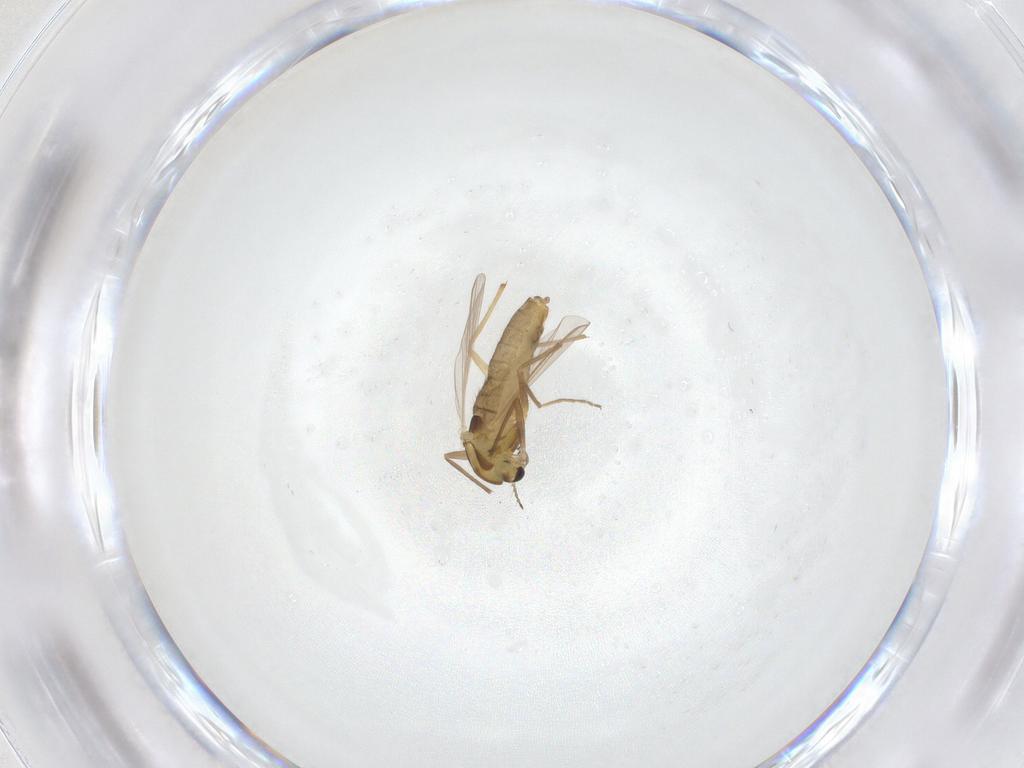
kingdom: Animalia
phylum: Arthropoda
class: Insecta
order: Diptera
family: Chironomidae
